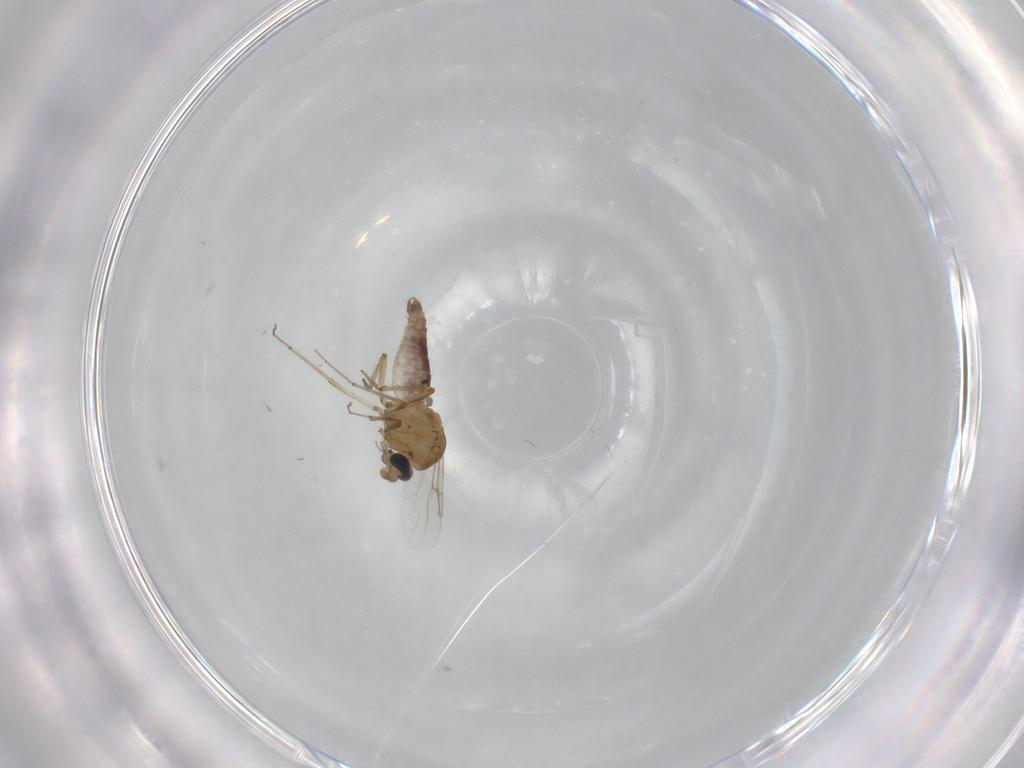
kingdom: Animalia
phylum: Arthropoda
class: Insecta
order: Diptera
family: Ceratopogonidae
